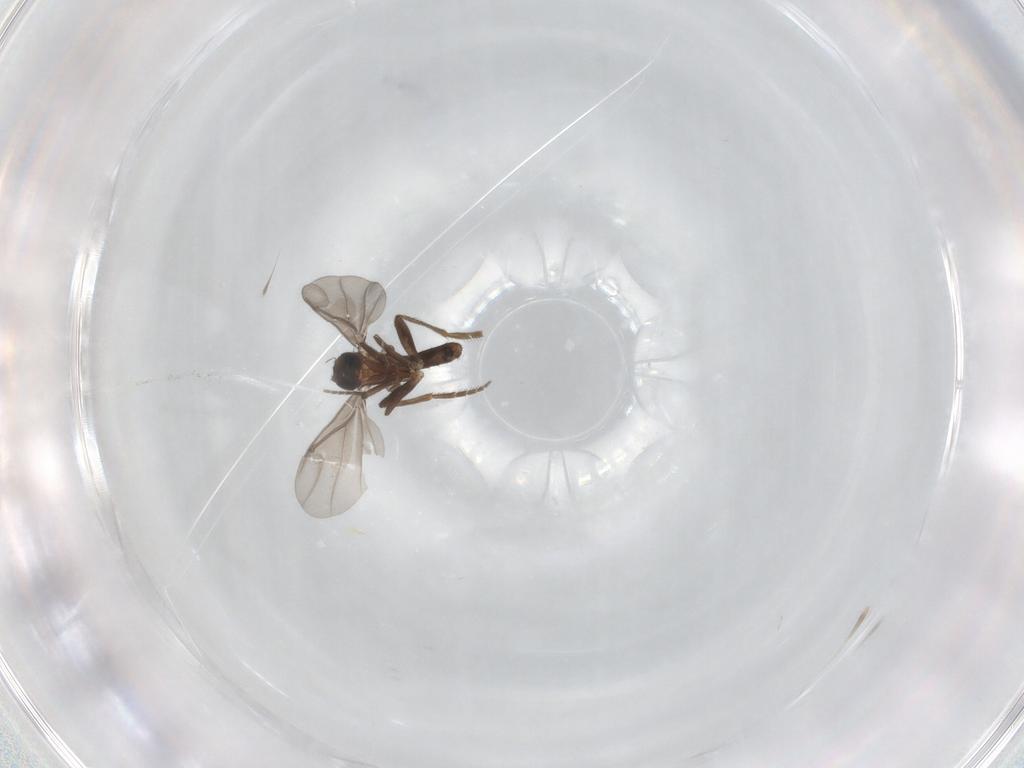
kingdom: Animalia
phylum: Arthropoda
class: Insecta
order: Diptera
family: Phoridae
